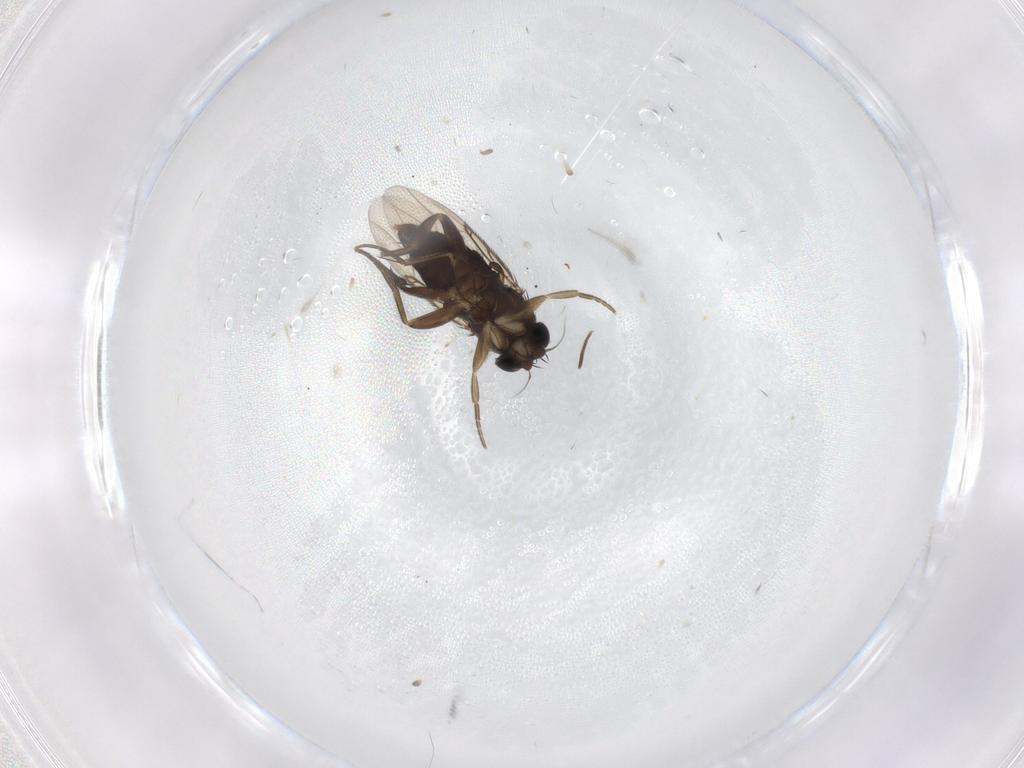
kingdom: Animalia
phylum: Arthropoda
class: Insecta
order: Diptera
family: Phoridae
